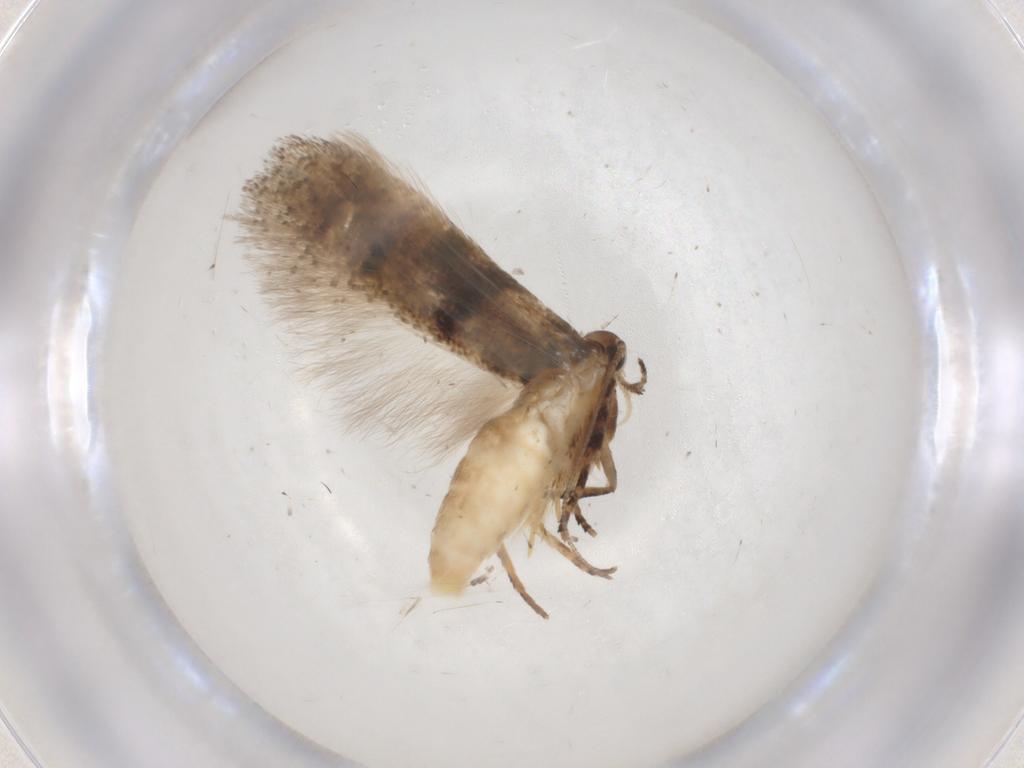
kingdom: Animalia
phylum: Arthropoda
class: Insecta
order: Lepidoptera
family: Gelechiidae
